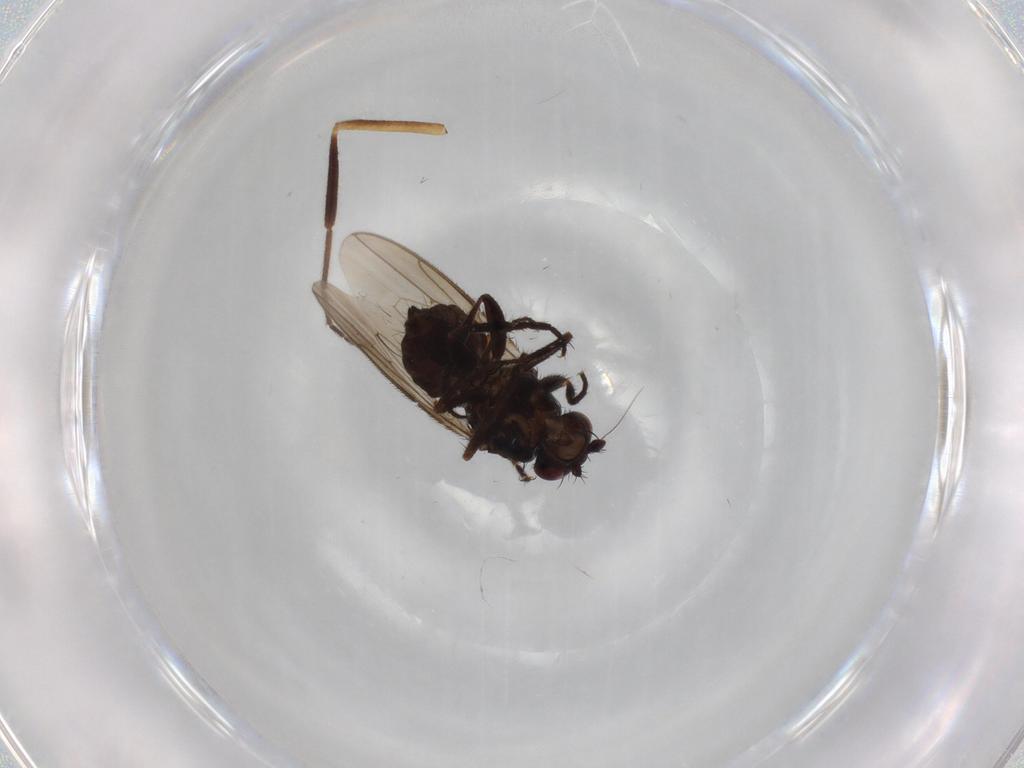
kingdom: Animalia
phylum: Arthropoda
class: Insecta
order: Diptera
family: Sphaeroceridae
